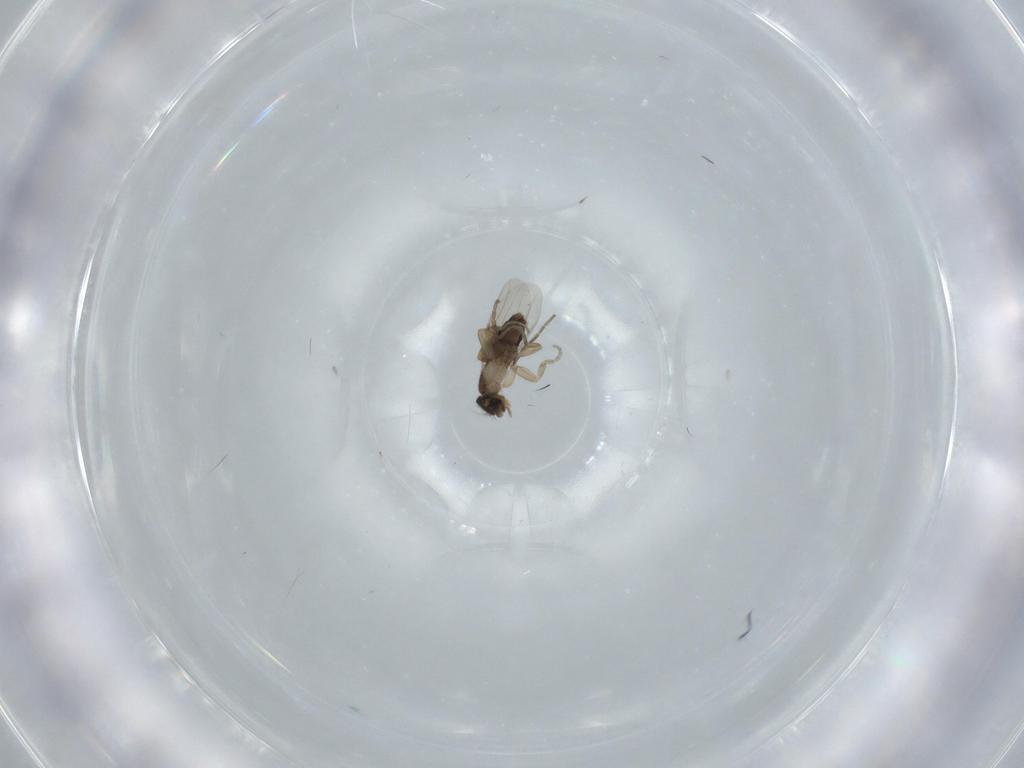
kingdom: Animalia
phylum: Arthropoda
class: Insecta
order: Diptera
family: Phoridae
